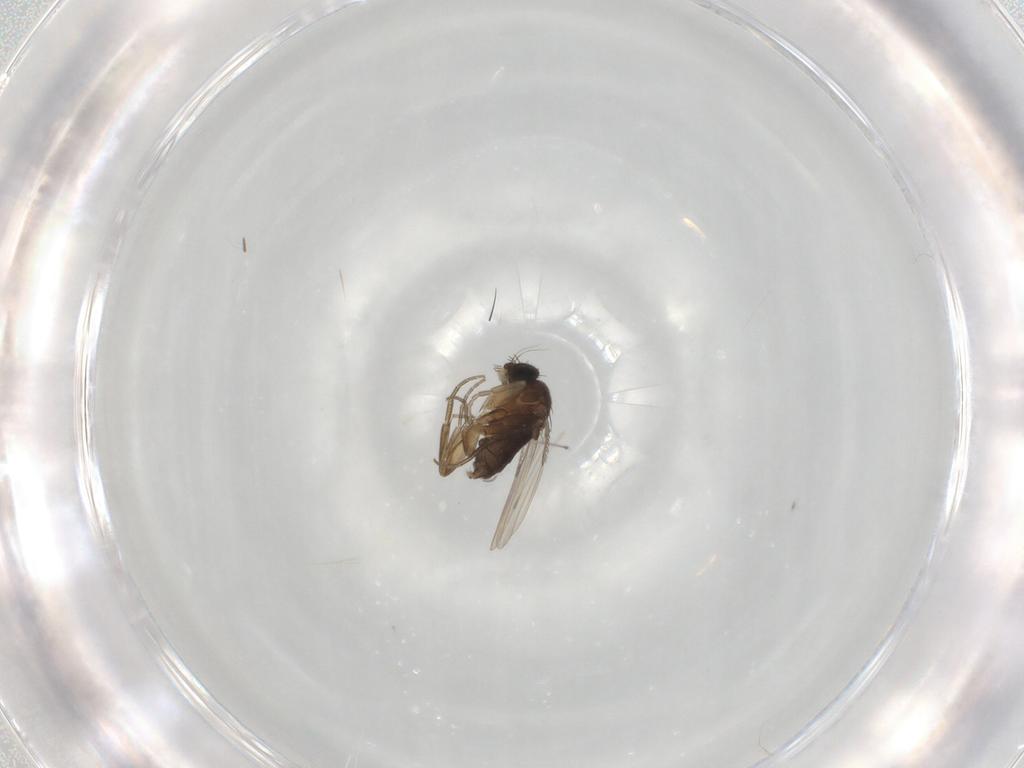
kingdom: Animalia
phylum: Arthropoda
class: Insecta
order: Diptera
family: Phoridae
